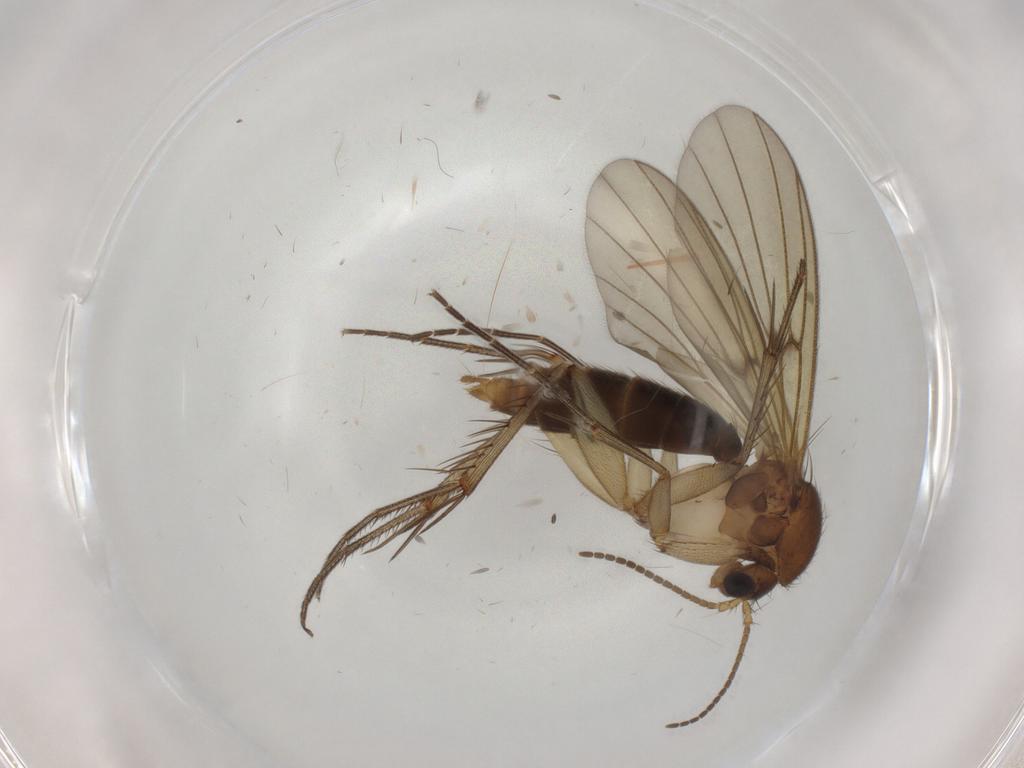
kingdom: Animalia
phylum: Arthropoda
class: Insecta
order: Diptera
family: Mycetophilidae
